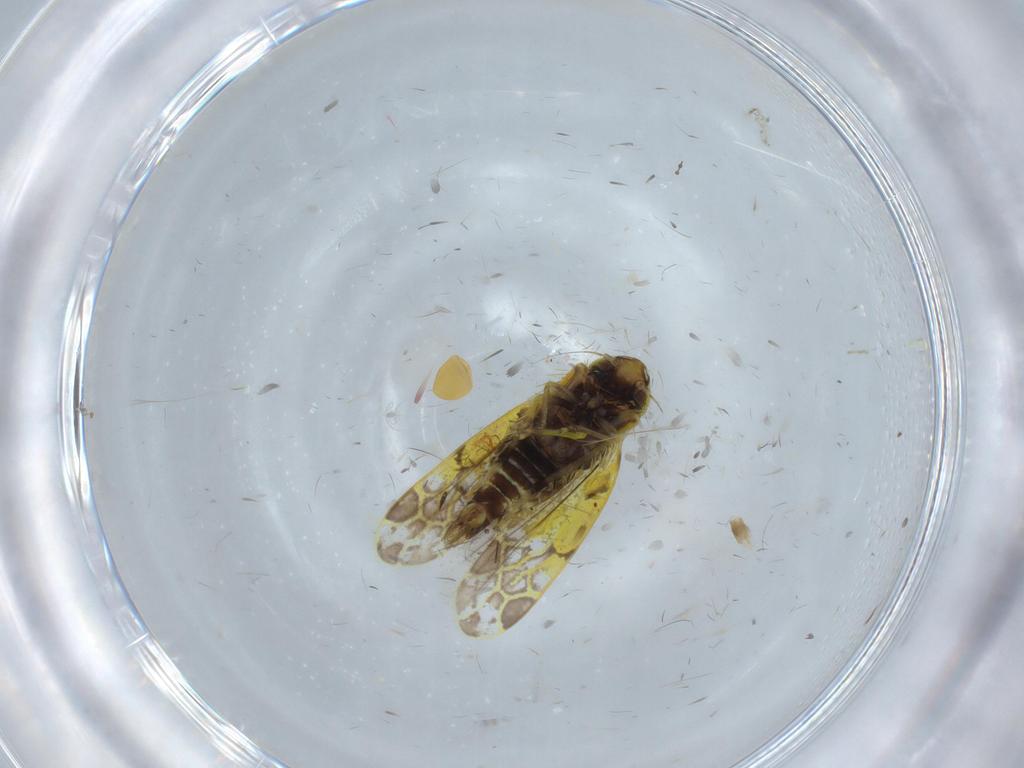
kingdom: Animalia
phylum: Arthropoda
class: Insecta
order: Hemiptera
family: Cicadellidae
